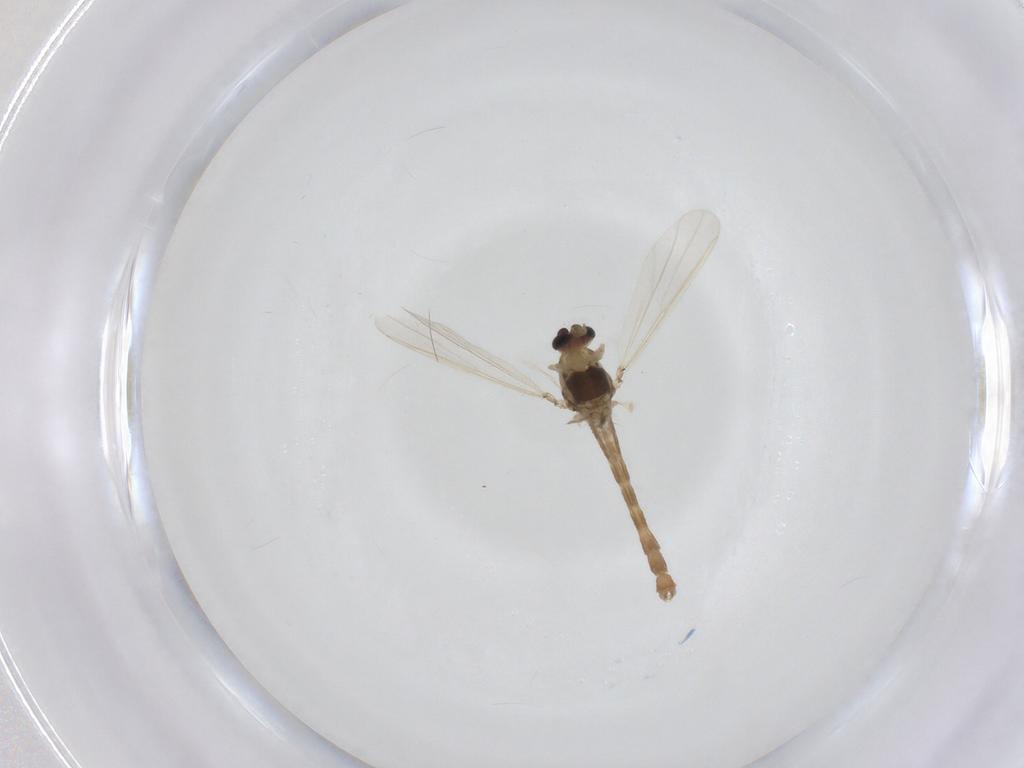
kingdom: Animalia
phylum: Arthropoda
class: Insecta
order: Diptera
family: Chironomidae
